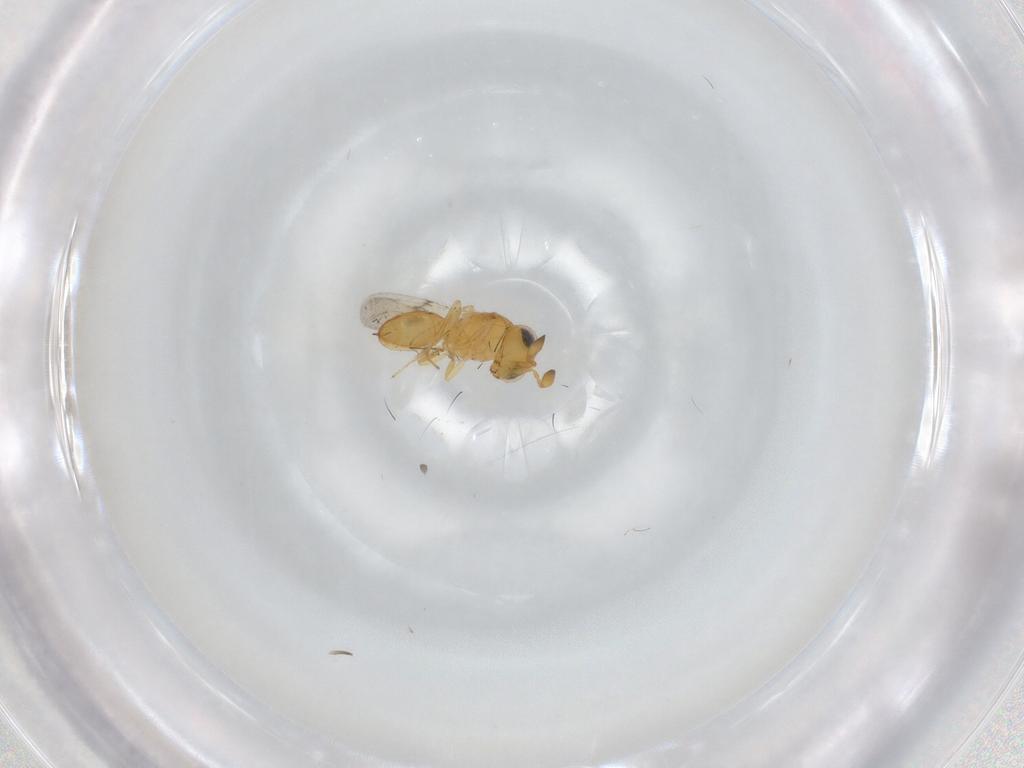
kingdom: Animalia
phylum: Arthropoda
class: Insecta
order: Hymenoptera
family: Scelionidae
